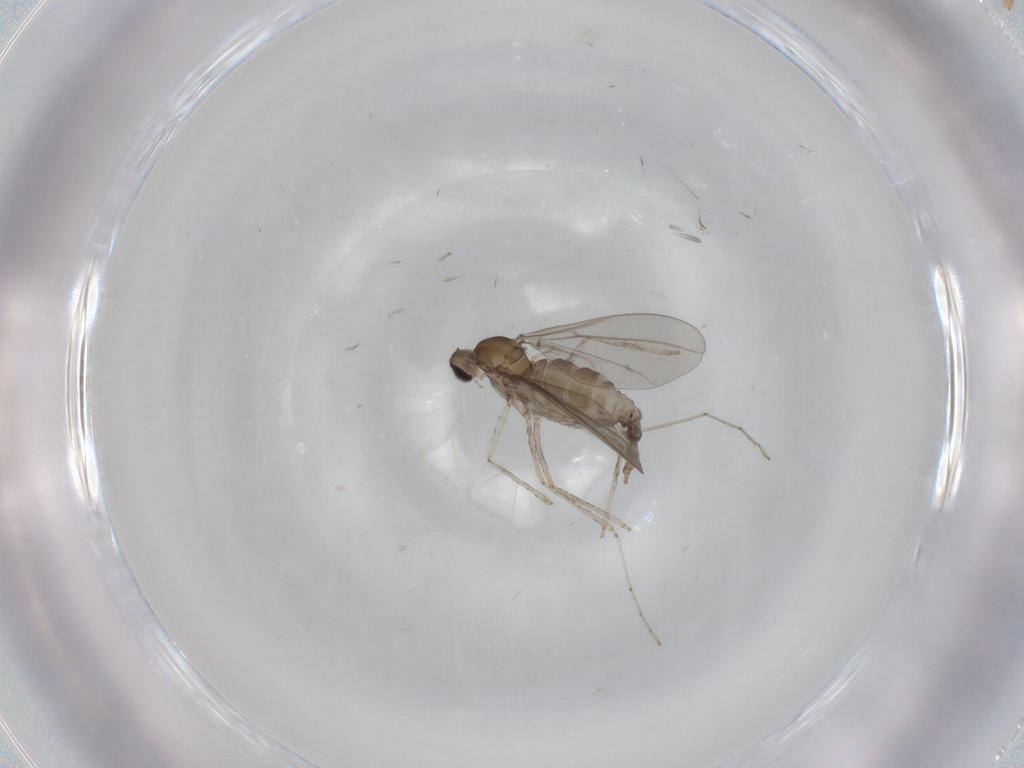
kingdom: Animalia
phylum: Arthropoda
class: Insecta
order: Diptera
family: Cecidomyiidae
